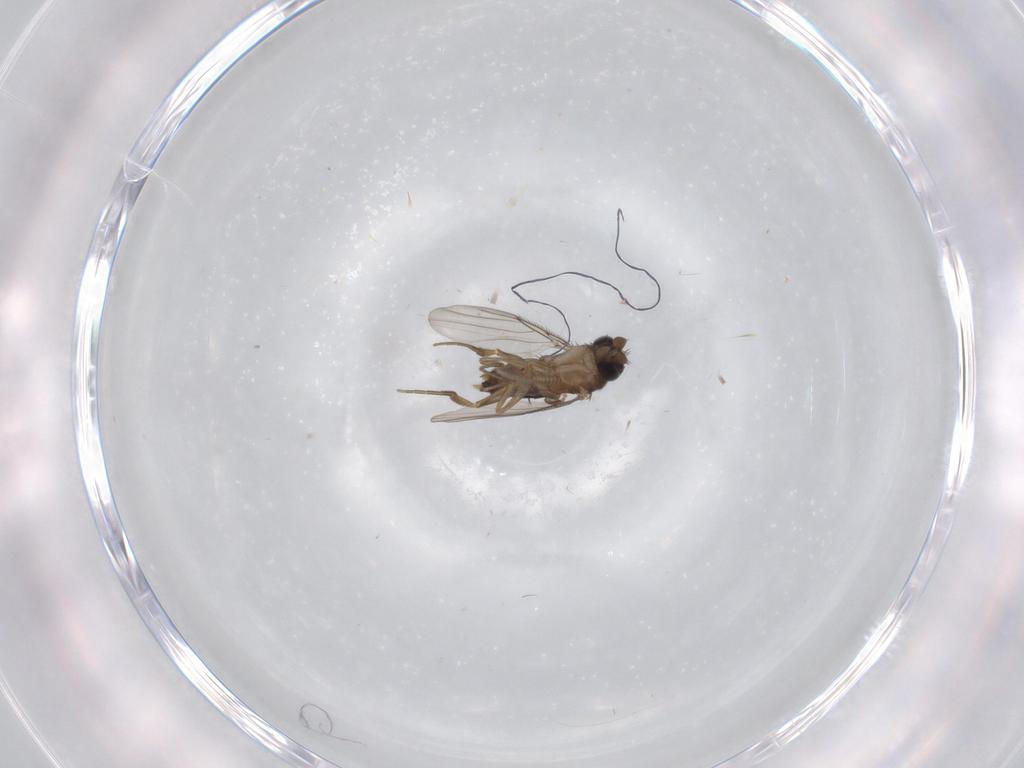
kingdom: Animalia
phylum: Arthropoda
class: Insecta
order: Diptera
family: Phoridae
